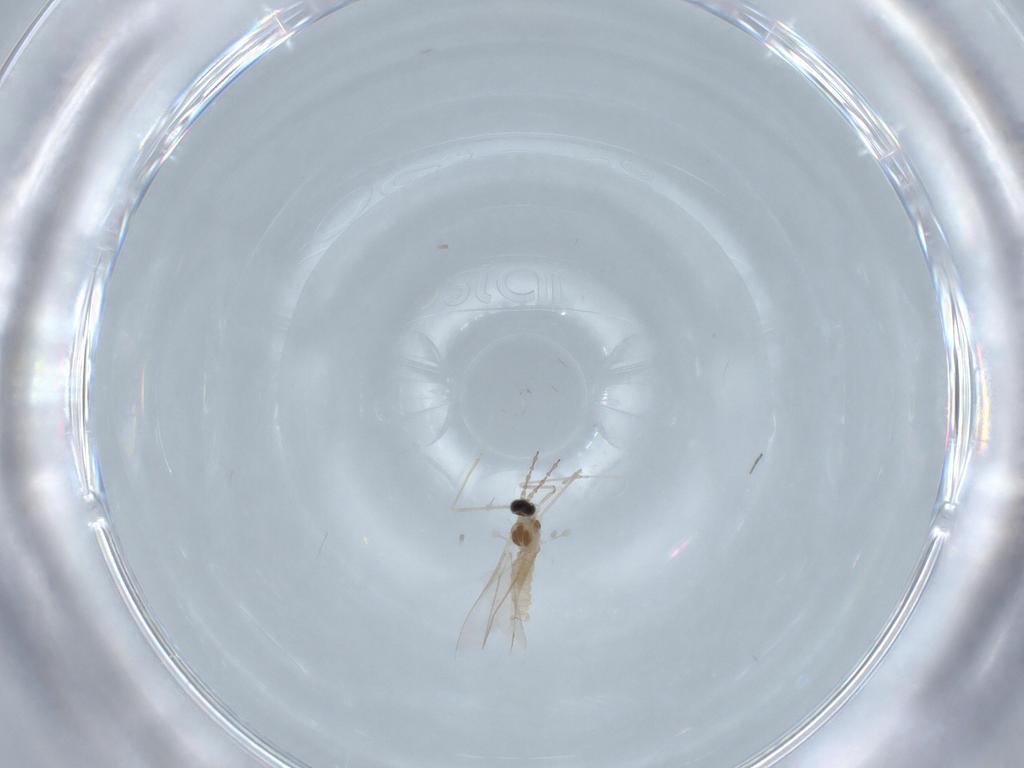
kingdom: Animalia
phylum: Arthropoda
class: Insecta
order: Diptera
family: Cecidomyiidae
